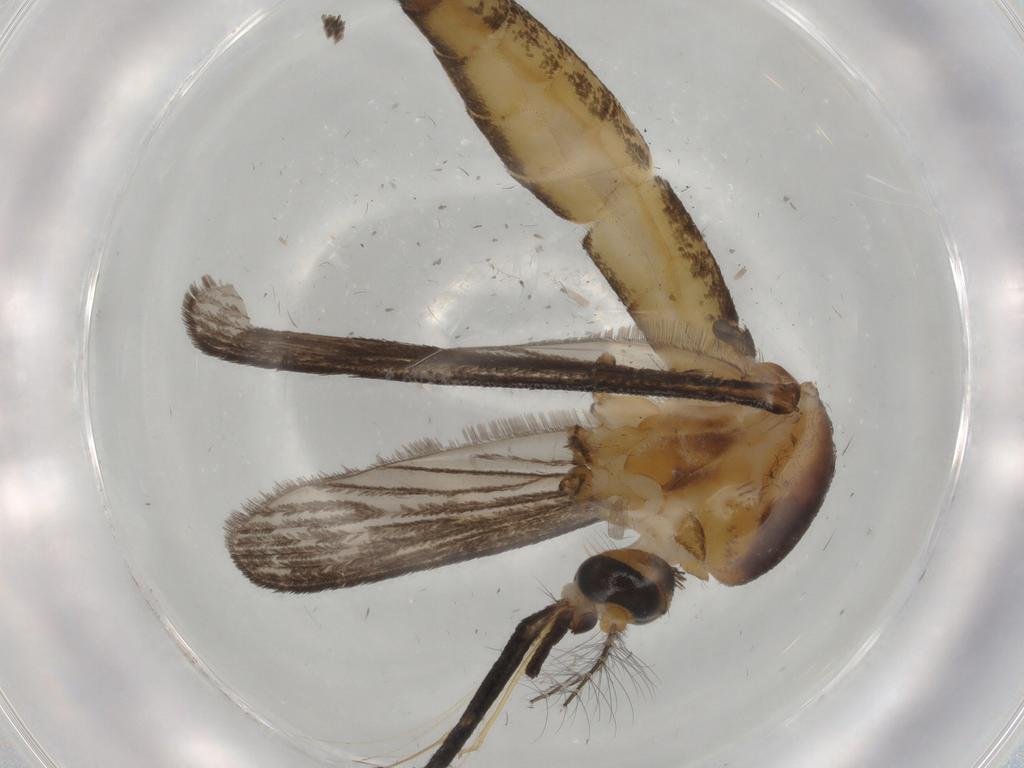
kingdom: Animalia
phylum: Arthropoda
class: Insecta
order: Diptera
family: Culicidae
